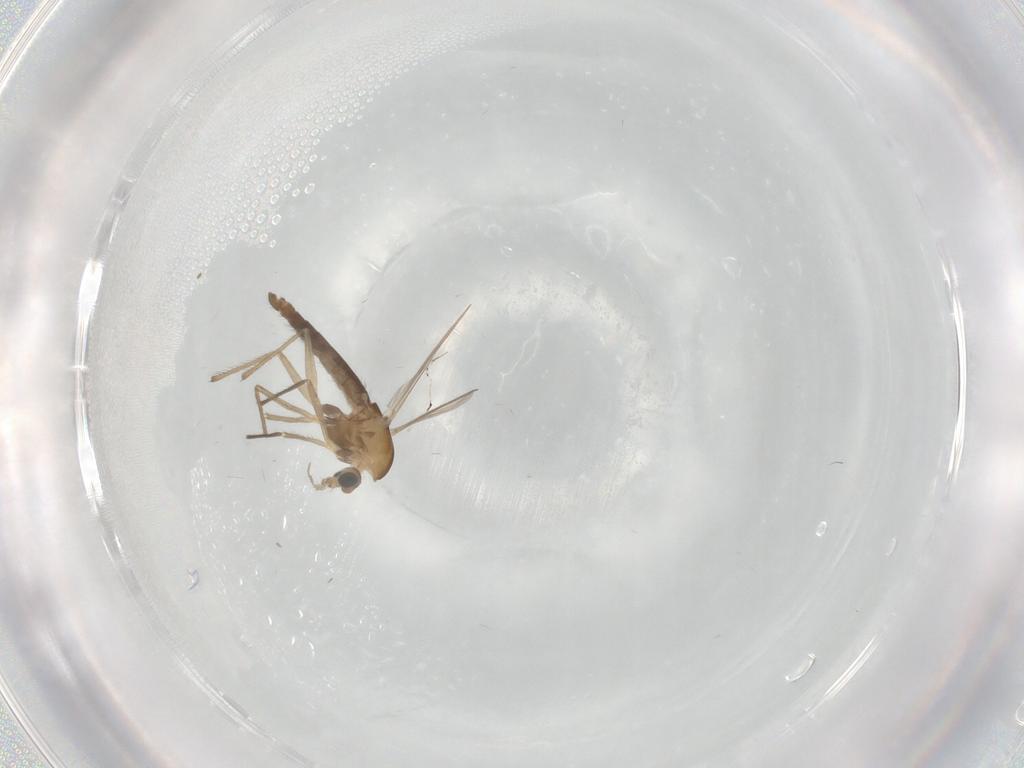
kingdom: Animalia
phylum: Arthropoda
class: Insecta
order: Diptera
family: Chironomidae
